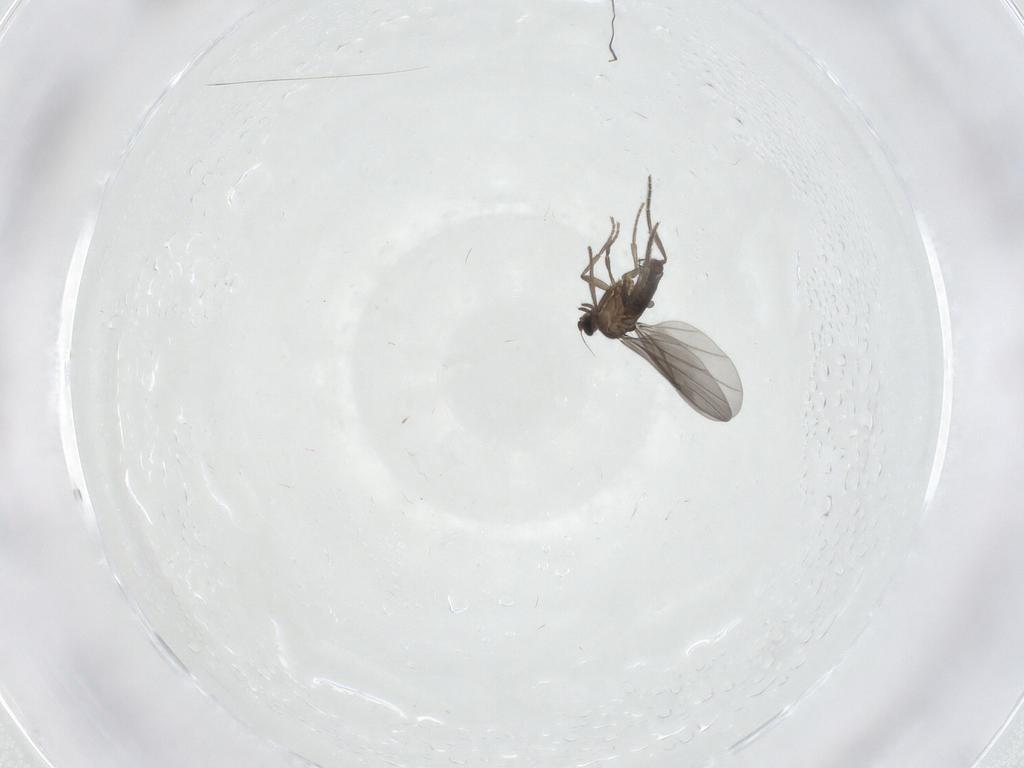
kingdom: Animalia
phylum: Arthropoda
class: Insecta
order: Diptera
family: Phoridae
